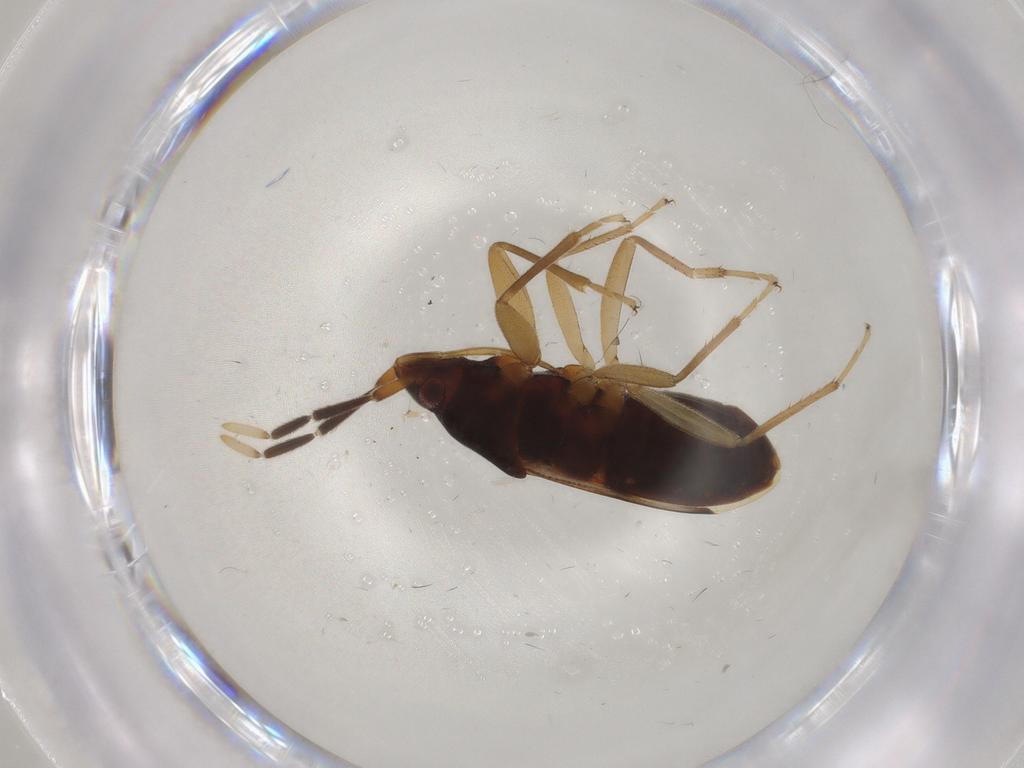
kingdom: Animalia
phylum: Arthropoda
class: Insecta
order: Hemiptera
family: Rhyparochromidae
